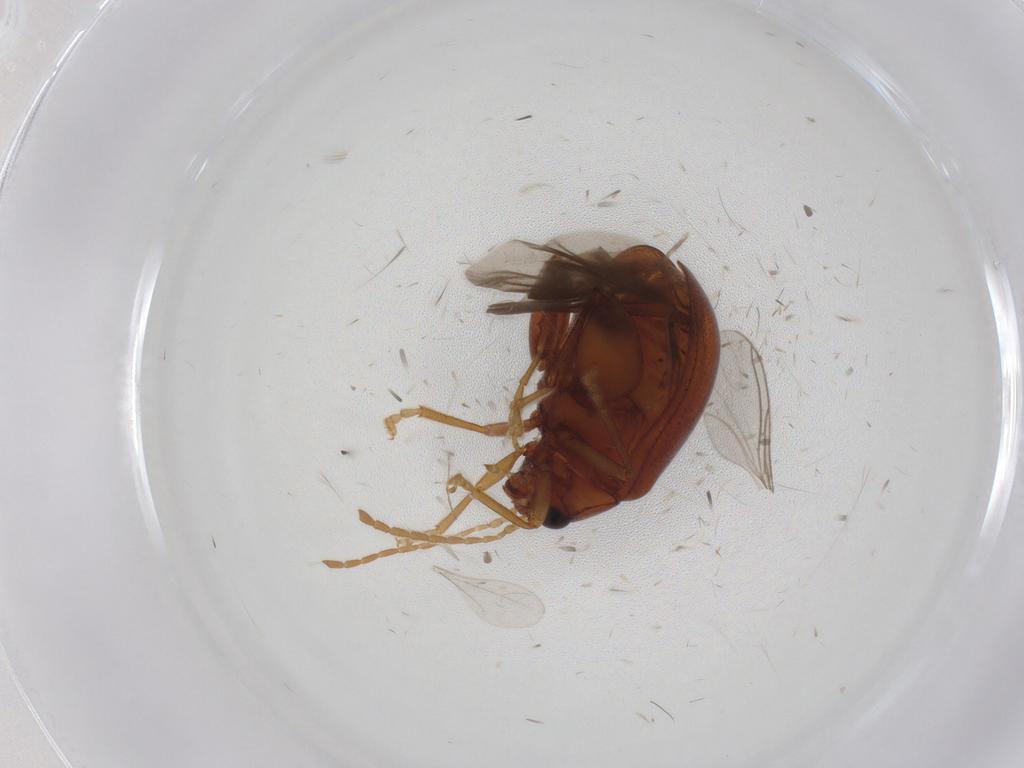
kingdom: Animalia
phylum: Arthropoda
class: Insecta
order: Coleoptera
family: Chrysomelidae
